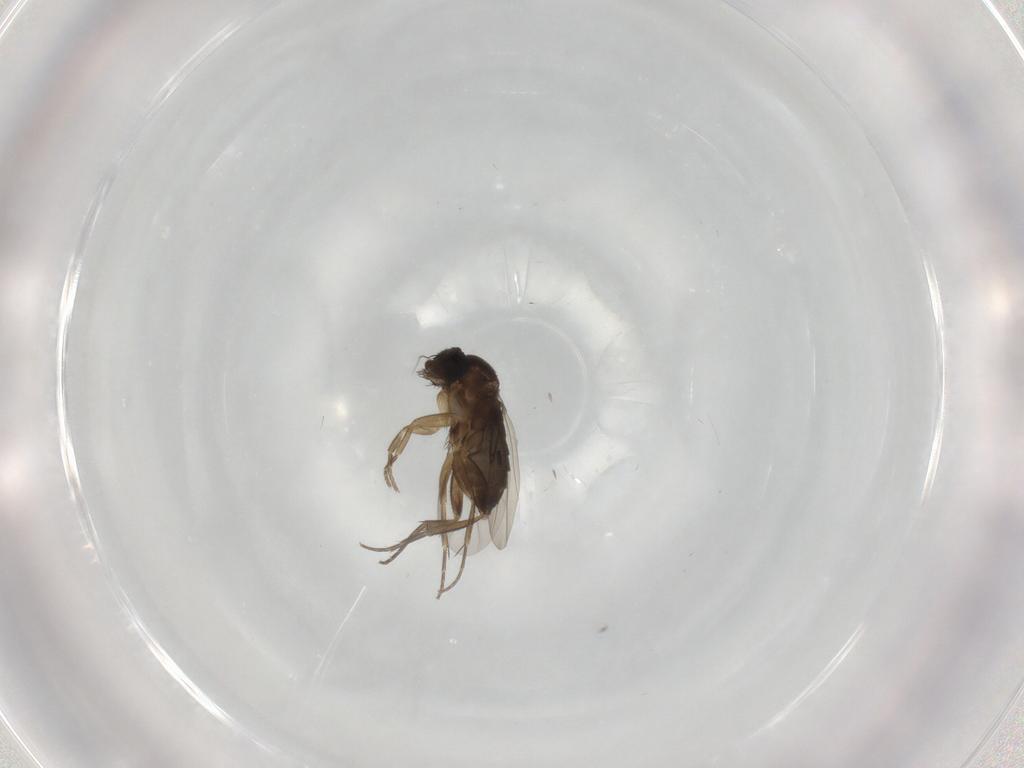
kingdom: Animalia
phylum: Arthropoda
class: Insecta
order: Diptera
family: Phoridae
